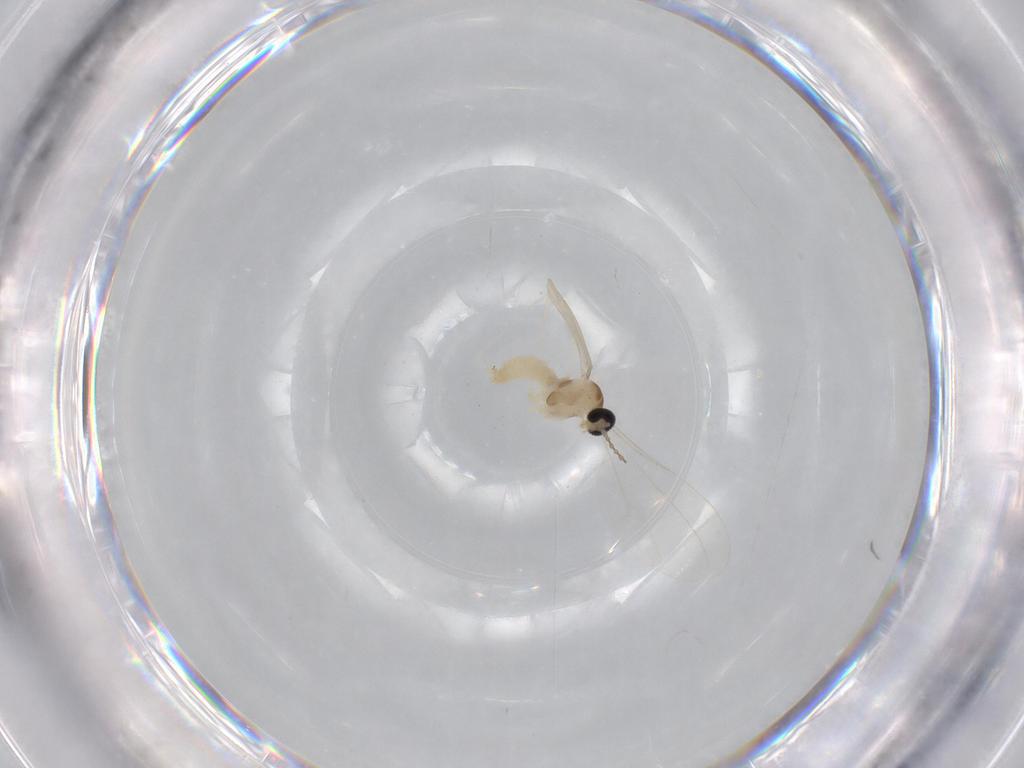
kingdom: Animalia
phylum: Arthropoda
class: Insecta
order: Diptera
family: Cecidomyiidae
